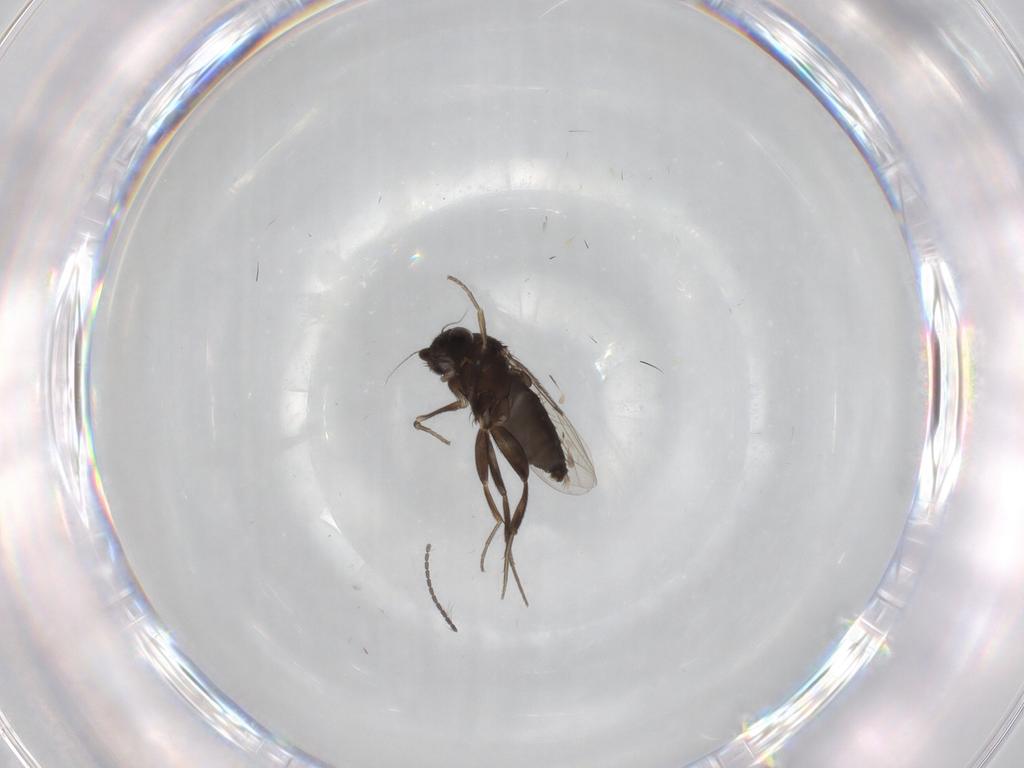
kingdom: Animalia
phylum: Arthropoda
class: Insecta
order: Diptera
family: Phoridae
